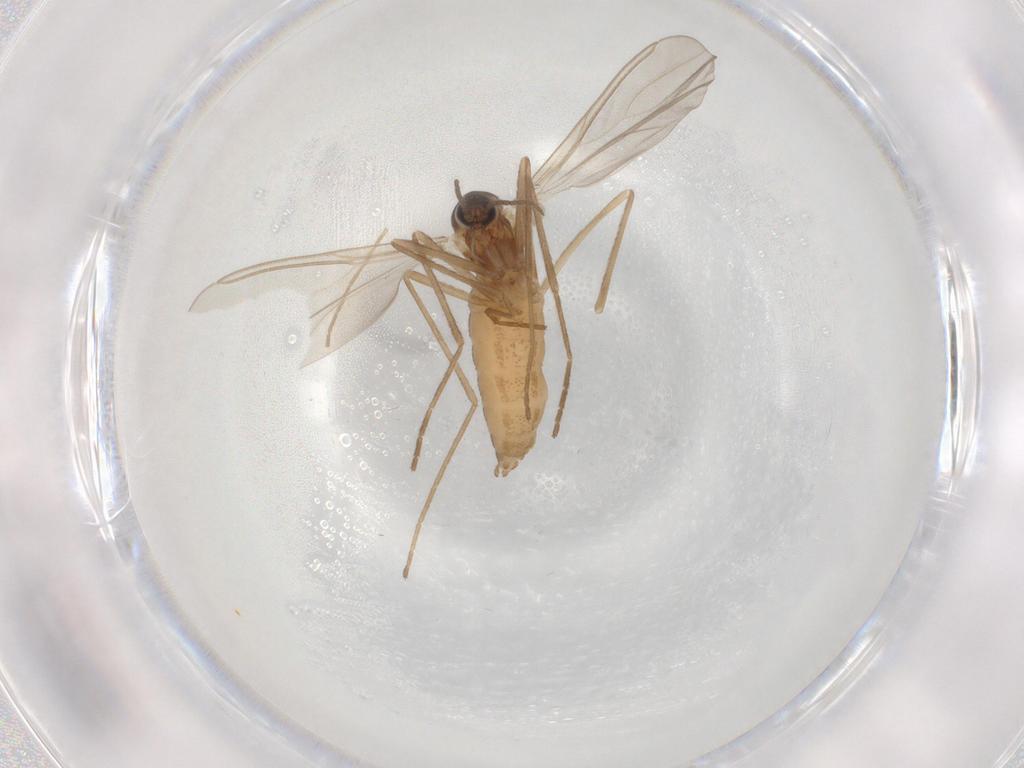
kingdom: Animalia
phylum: Arthropoda
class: Insecta
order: Diptera
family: Cecidomyiidae
